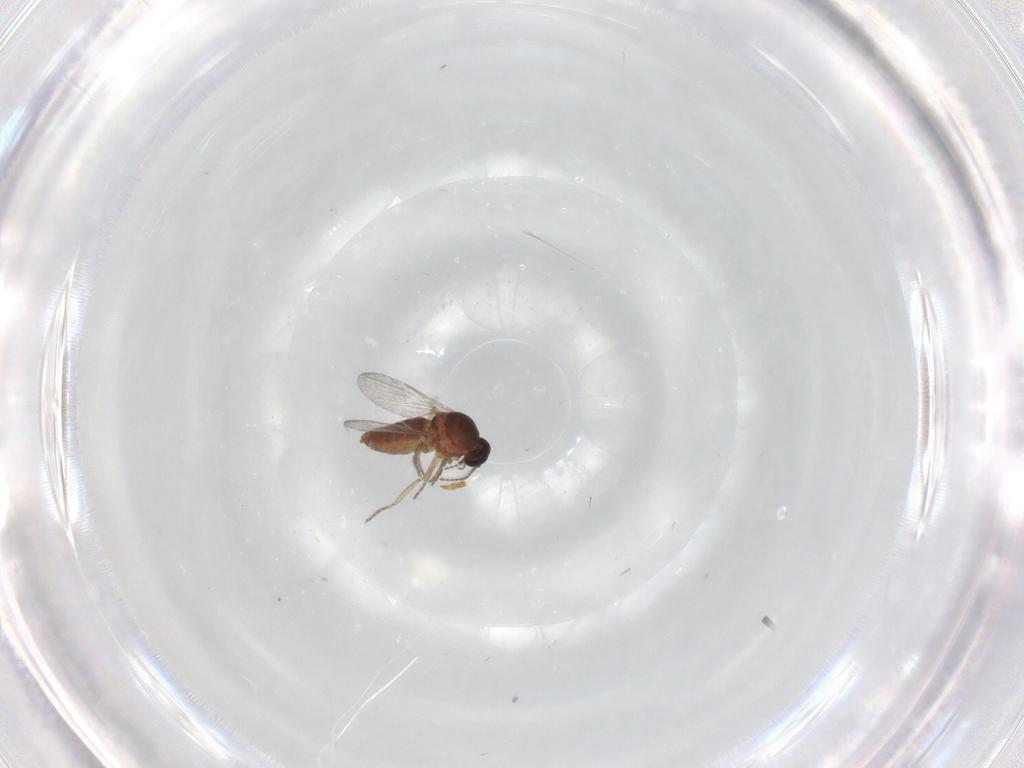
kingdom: Animalia
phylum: Arthropoda
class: Insecta
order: Diptera
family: Ceratopogonidae
